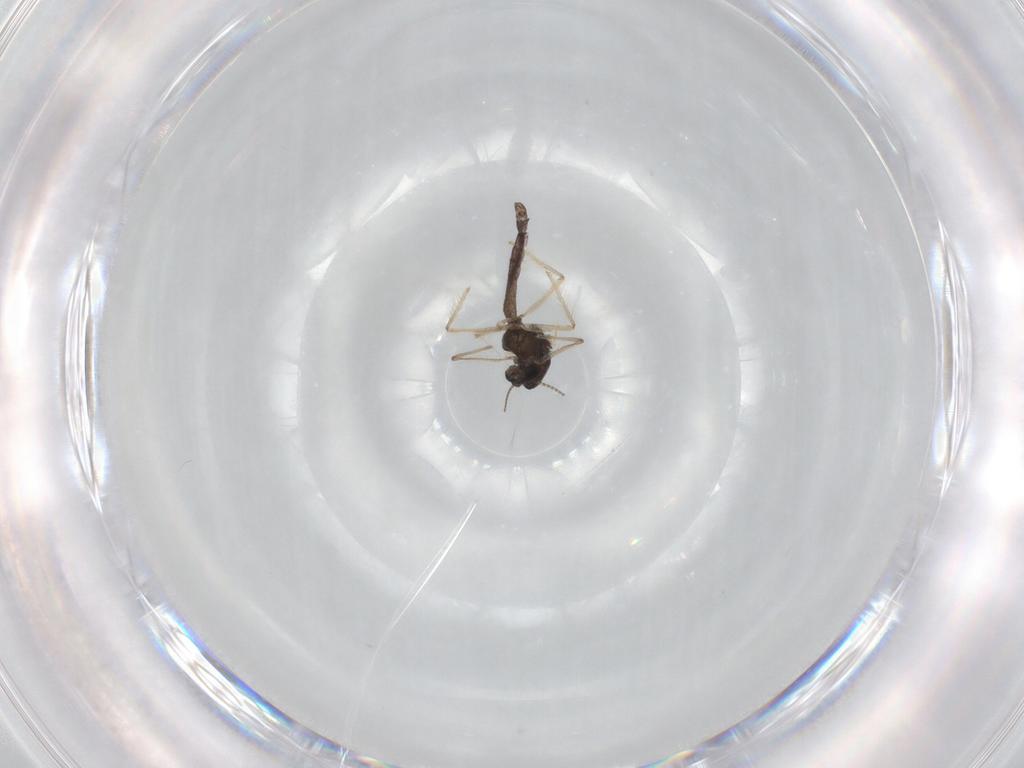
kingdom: Animalia
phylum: Arthropoda
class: Insecta
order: Diptera
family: Chironomidae
